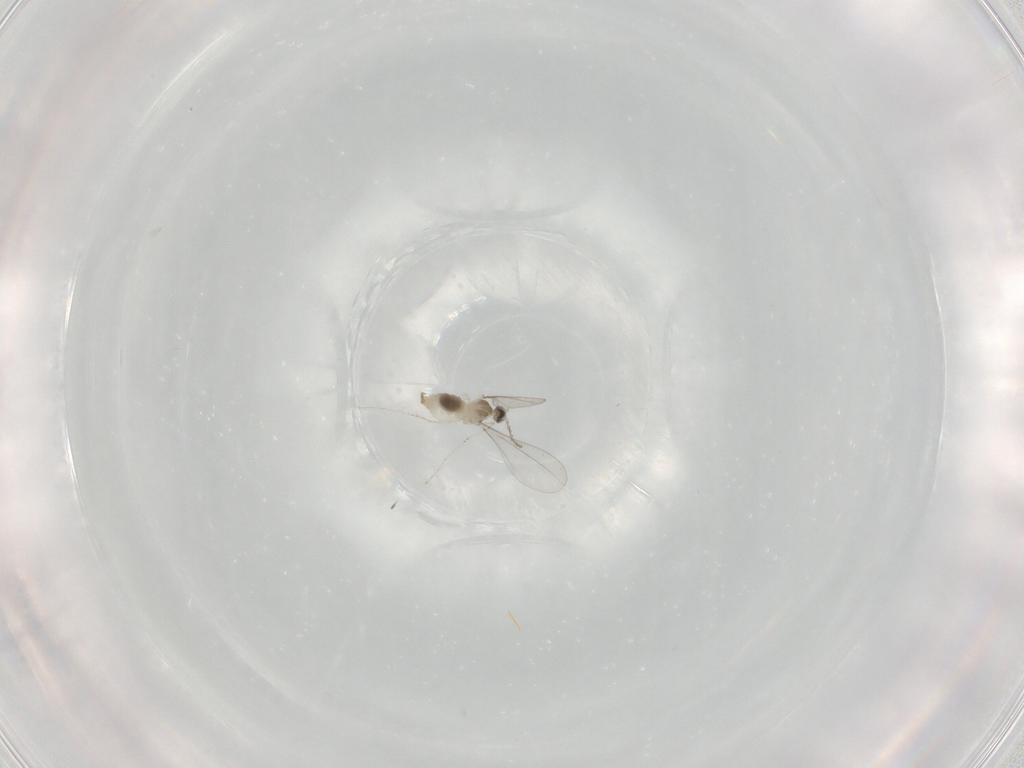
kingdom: Animalia
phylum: Arthropoda
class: Insecta
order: Diptera
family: Cecidomyiidae
